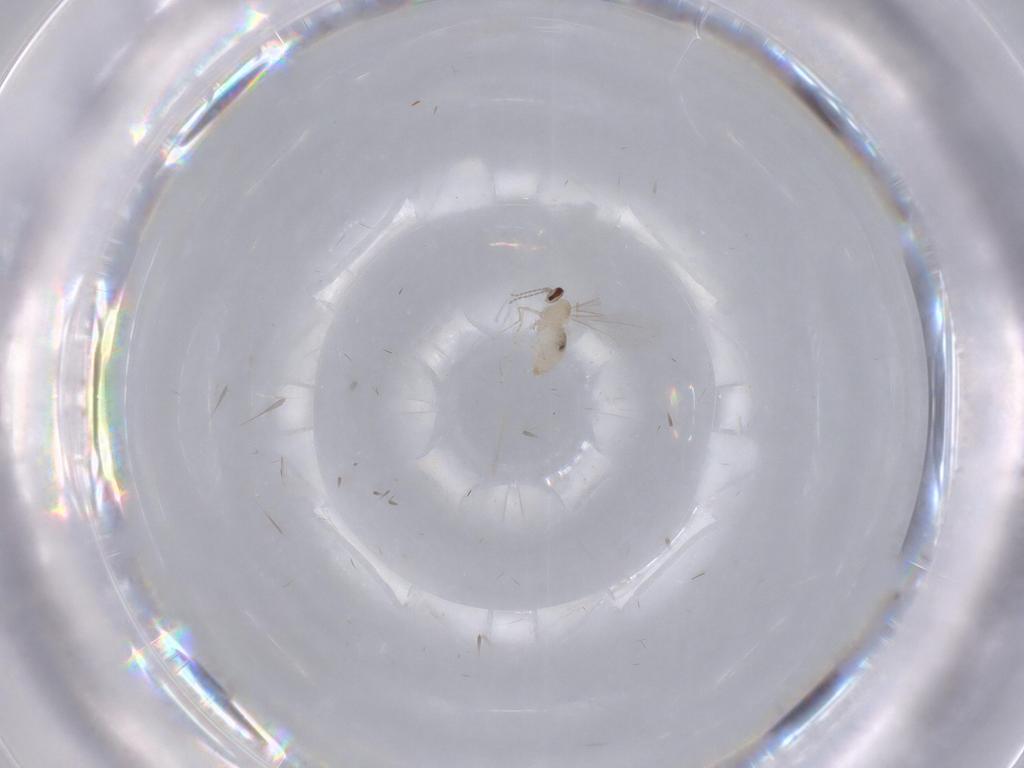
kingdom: Animalia
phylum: Arthropoda
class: Insecta
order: Diptera
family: Cecidomyiidae
